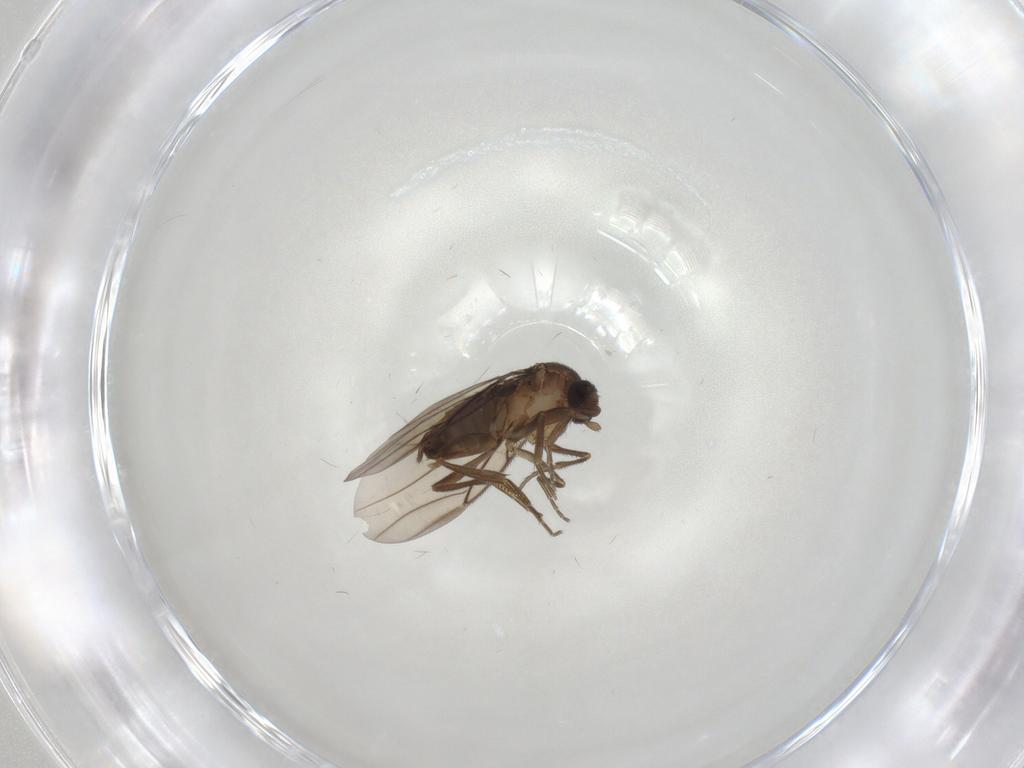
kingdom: Animalia
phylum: Arthropoda
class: Insecta
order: Diptera
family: Psychodidae
